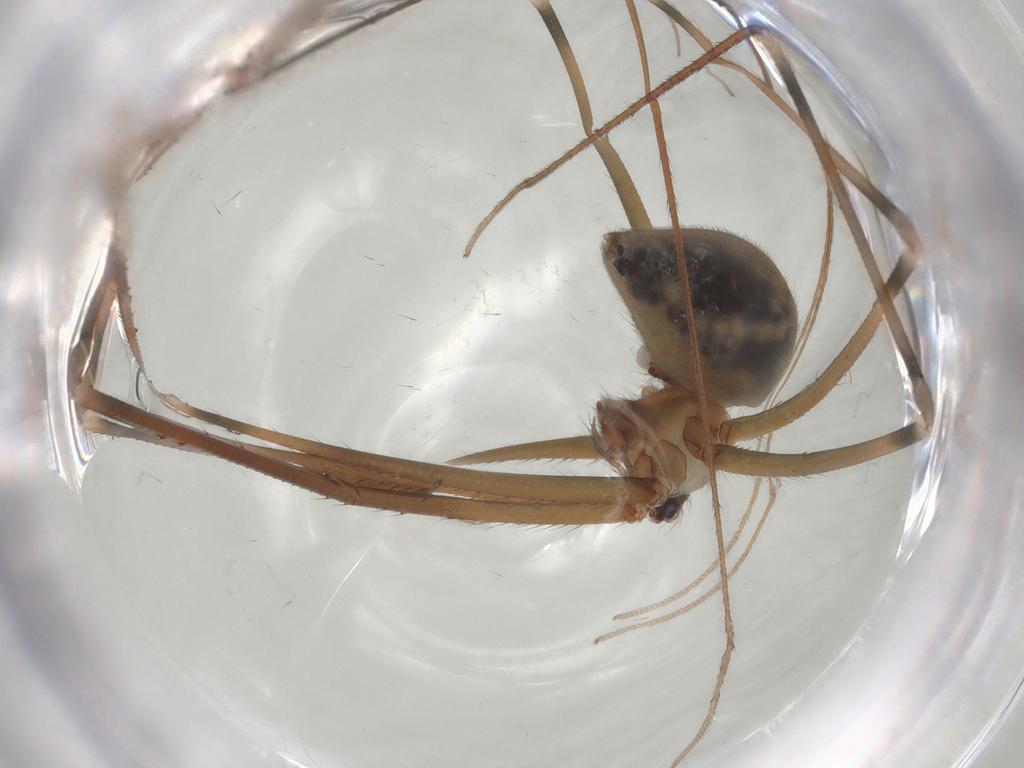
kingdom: Animalia
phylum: Arthropoda
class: Arachnida
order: Araneae
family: Pholcidae
